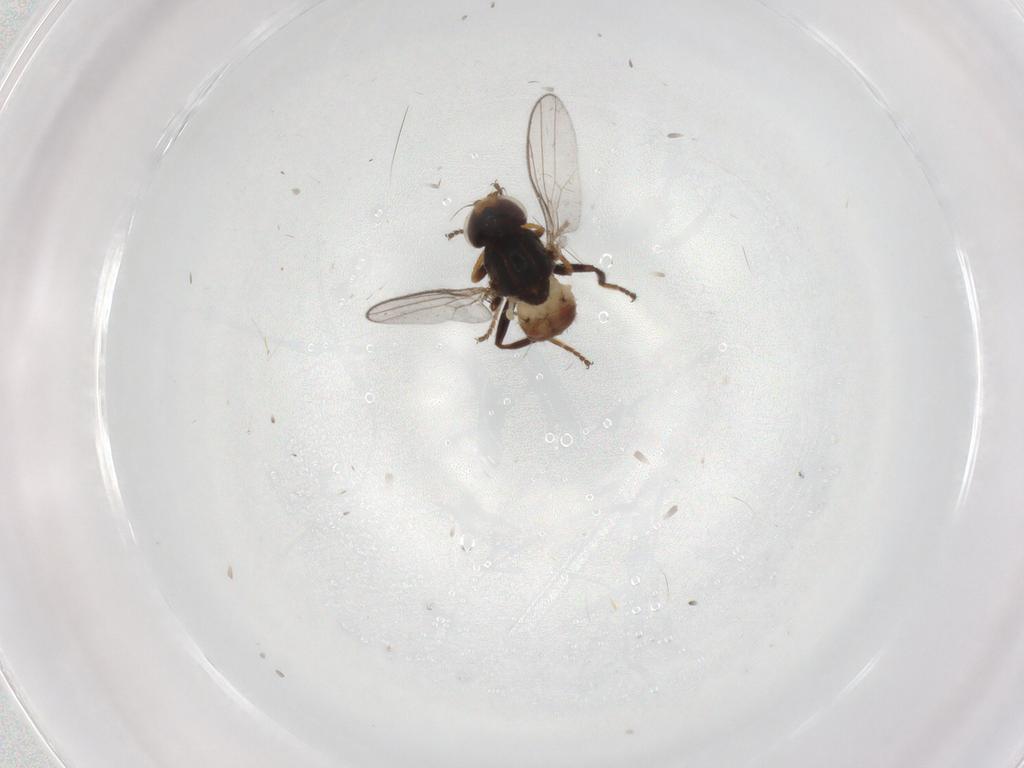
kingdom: Animalia
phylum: Arthropoda
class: Insecta
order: Diptera
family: Chloropidae
